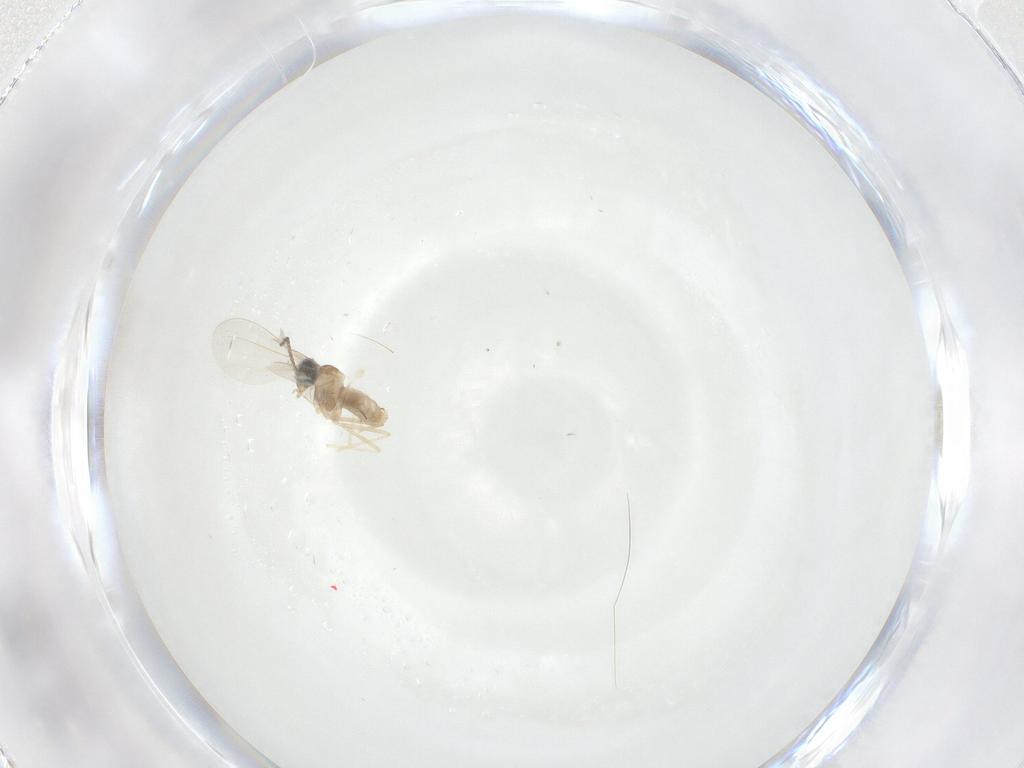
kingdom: Animalia
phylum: Arthropoda
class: Insecta
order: Diptera
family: Cecidomyiidae
